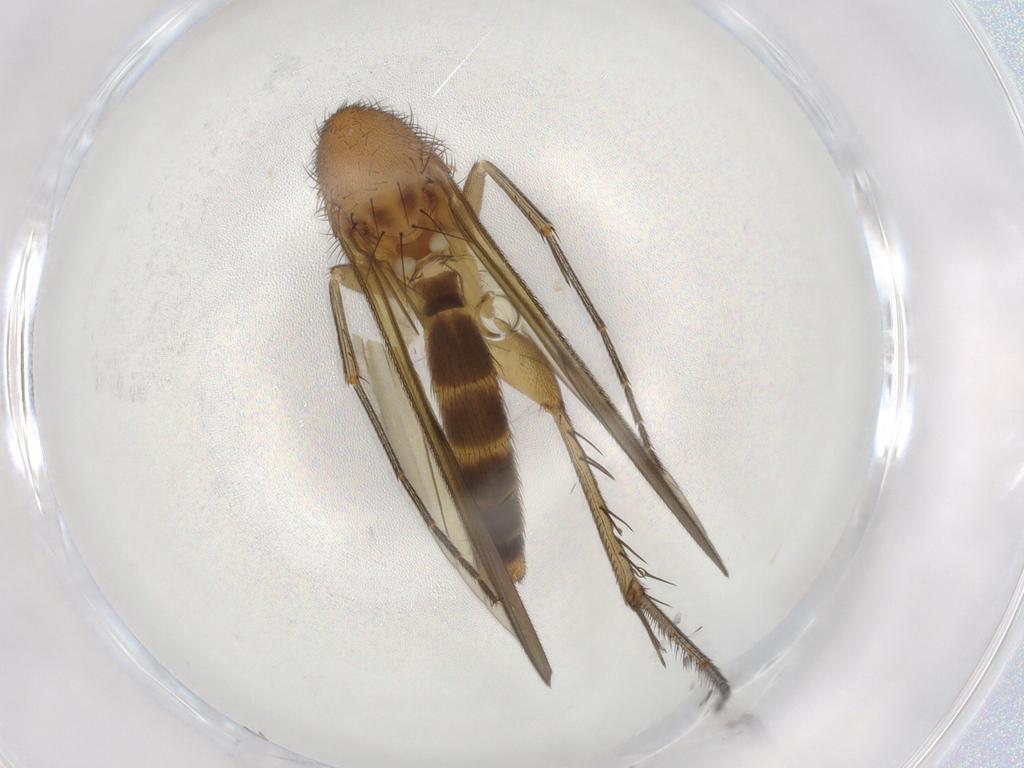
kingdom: Animalia
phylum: Arthropoda
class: Insecta
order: Diptera
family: Mycetophilidae
